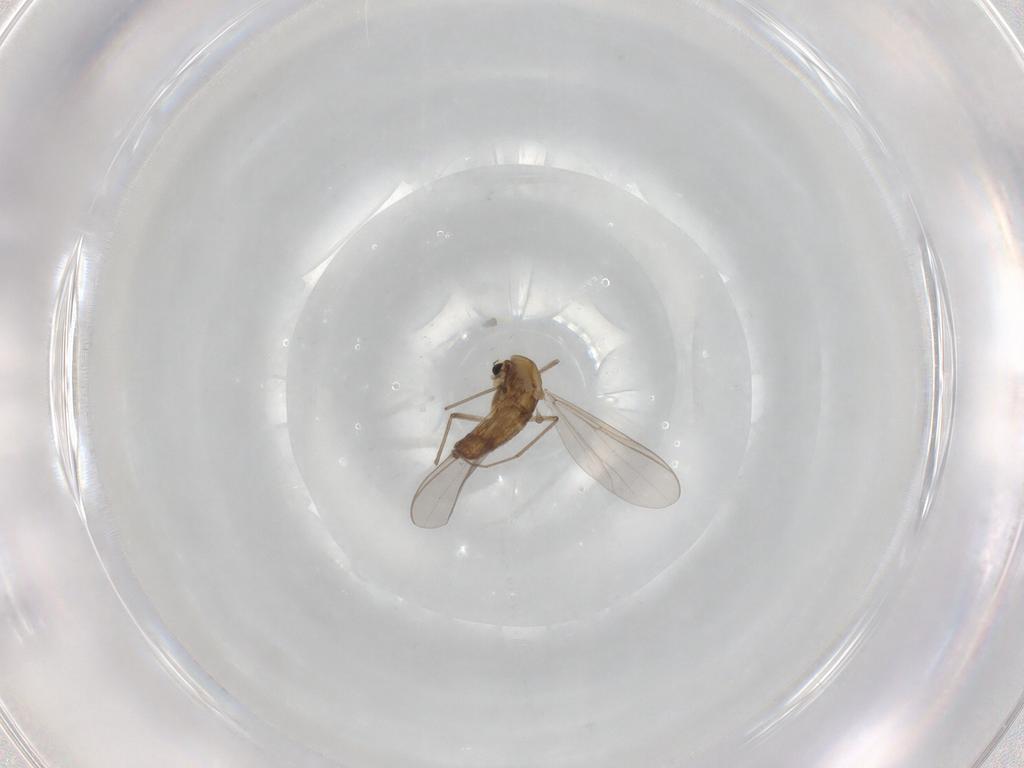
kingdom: Animalia
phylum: Arthropoda
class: Insecta
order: Diptera
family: Chironomidae
